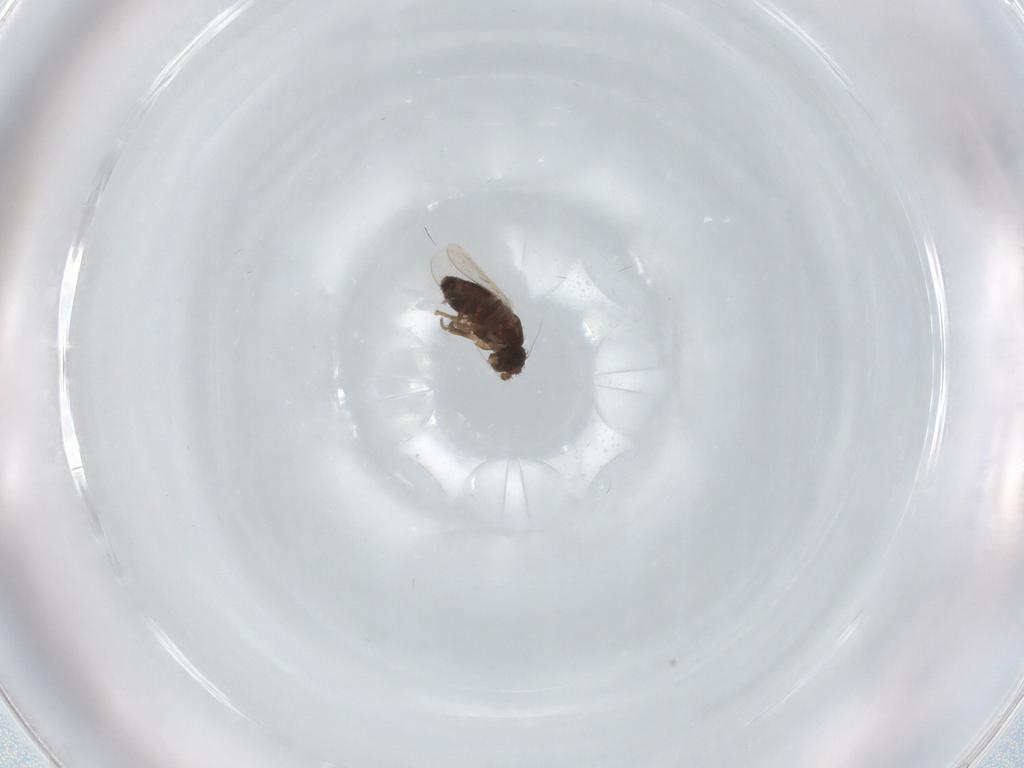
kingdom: Animalia
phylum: Arthropoda
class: Insecta
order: Diptera
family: Sphaeroceridae
